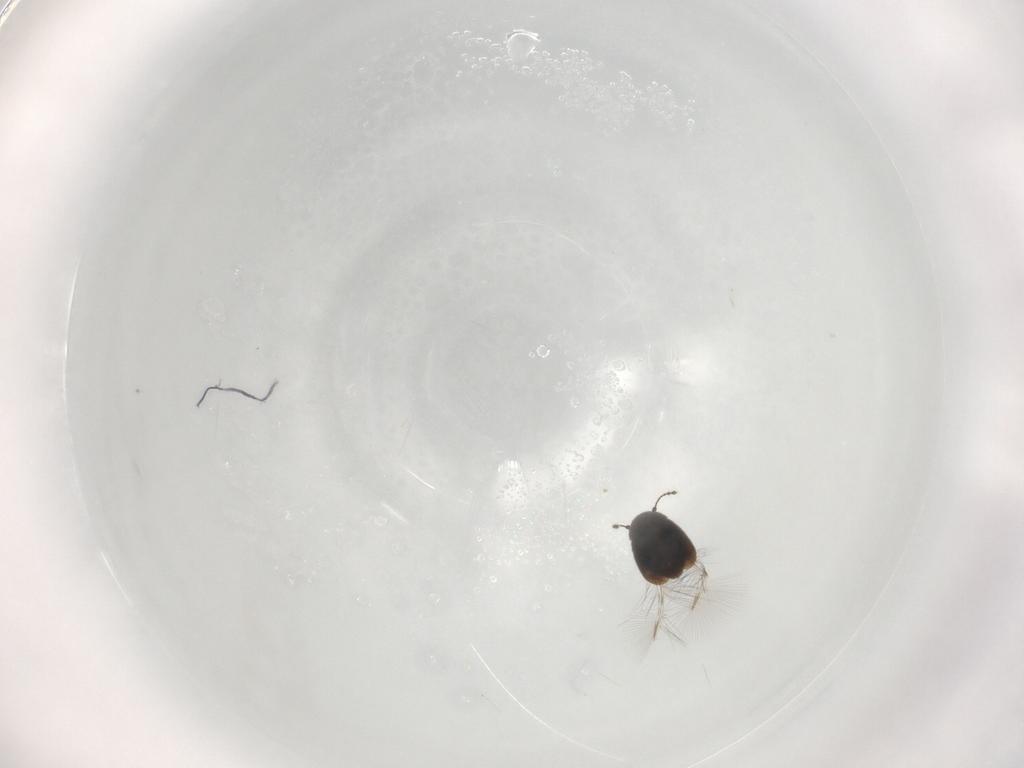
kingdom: Animalia
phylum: Arthropoda
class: Insecta
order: Coleoptera
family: Ptiliidae
